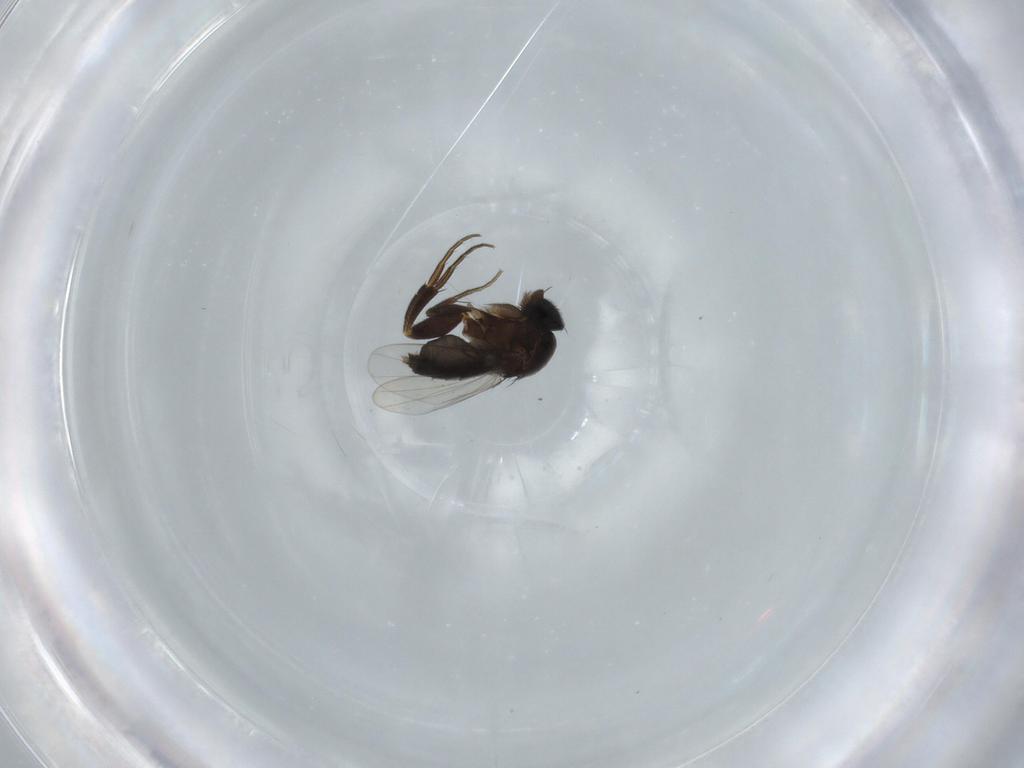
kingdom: Animalia
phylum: Arthropoda
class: Insecta
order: Diptera
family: Phoridae
